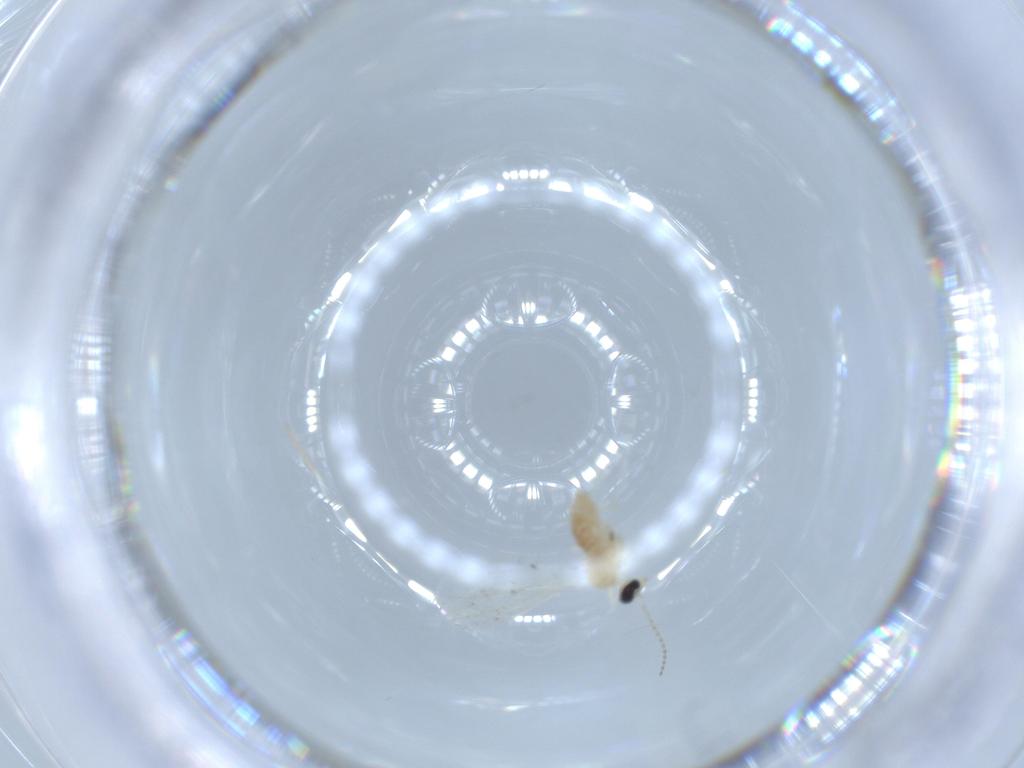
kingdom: Animalia
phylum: Arthropoda
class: Insecta
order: Diptera
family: Cecidomyiidae
